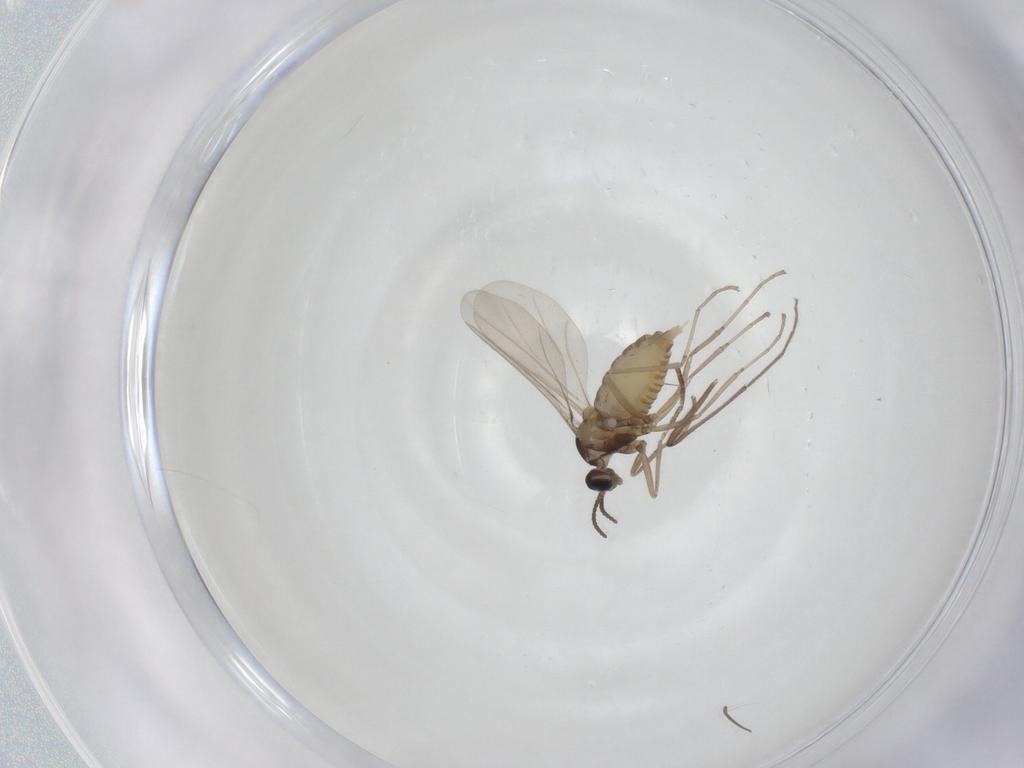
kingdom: Animalia
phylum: Arthropoda
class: Insecta
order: Diptera
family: Cecidomyiidae
